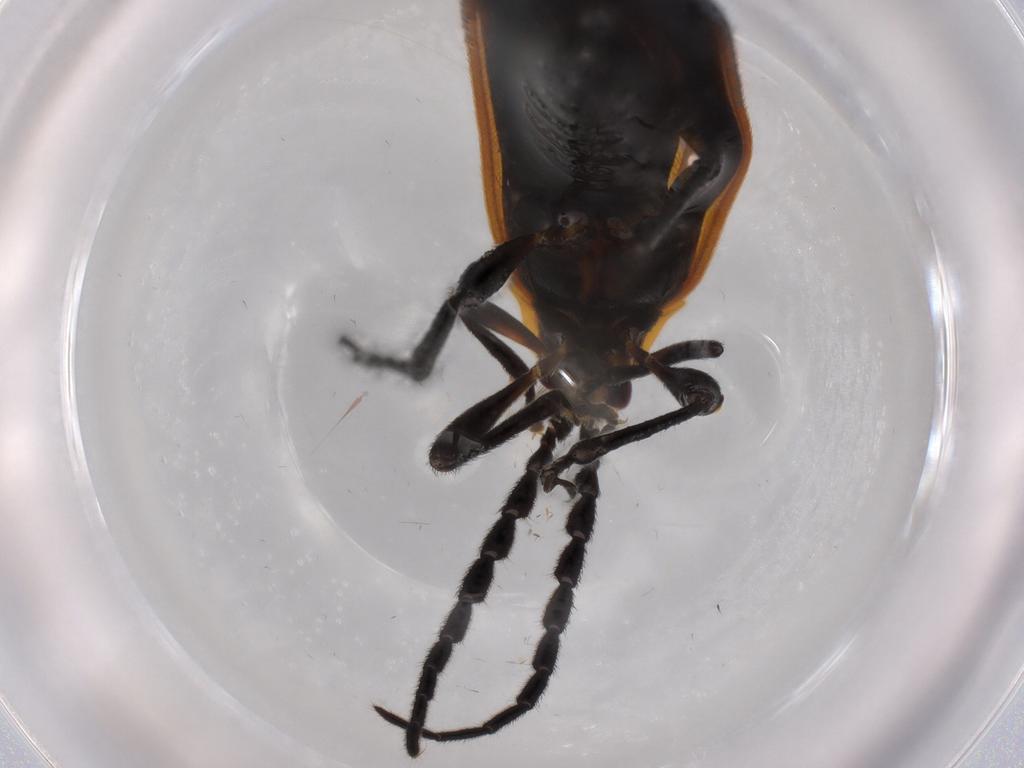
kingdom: Animalia
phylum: Arthropoda
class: Insecta
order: Coleoptera
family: Lycidae
